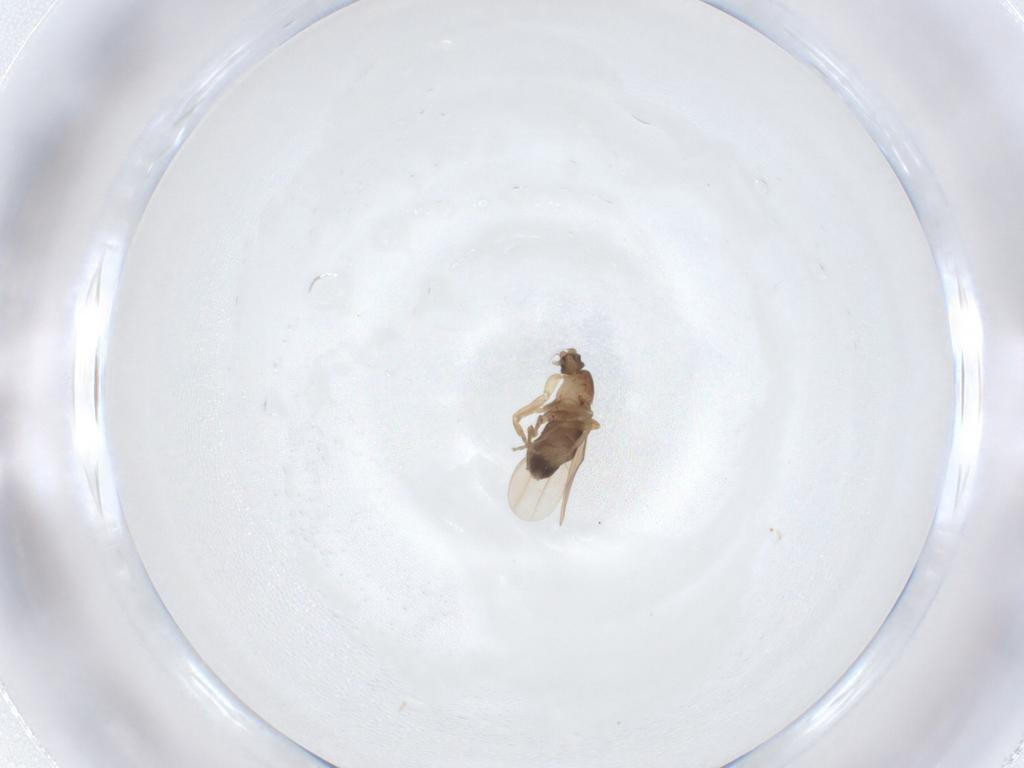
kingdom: Animalia
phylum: Arthropoda
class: Insecta
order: Diptera
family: Phoridae
